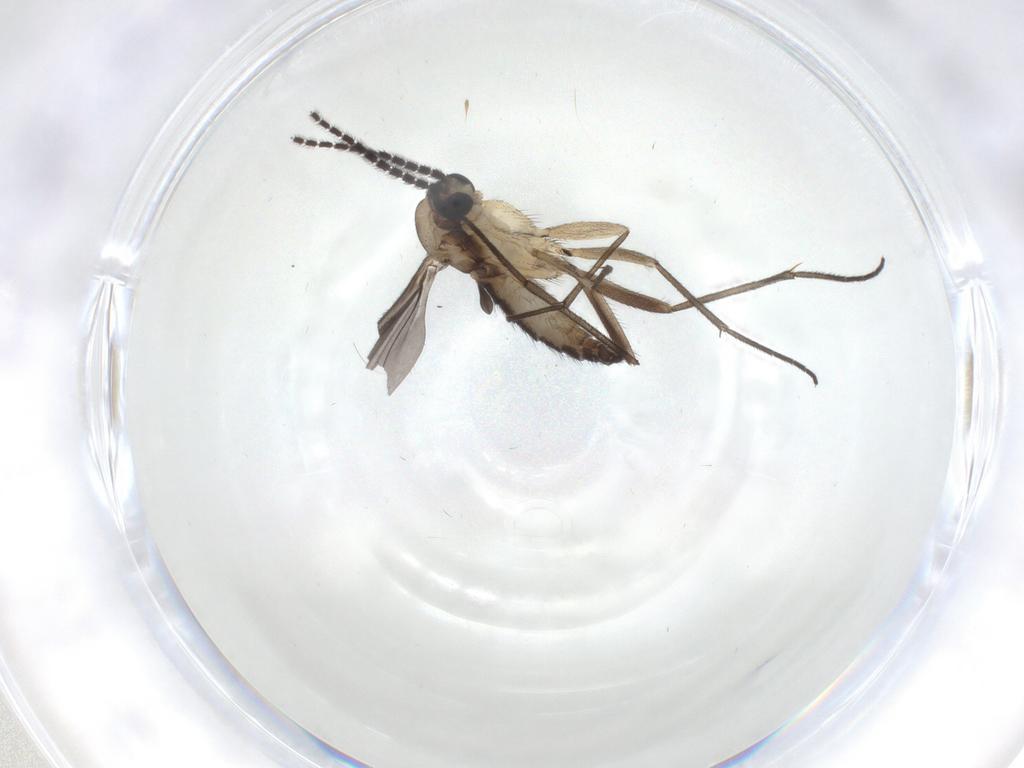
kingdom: Animalia
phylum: Arthropoda
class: Insecta
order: Diptera
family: Sciaridae
